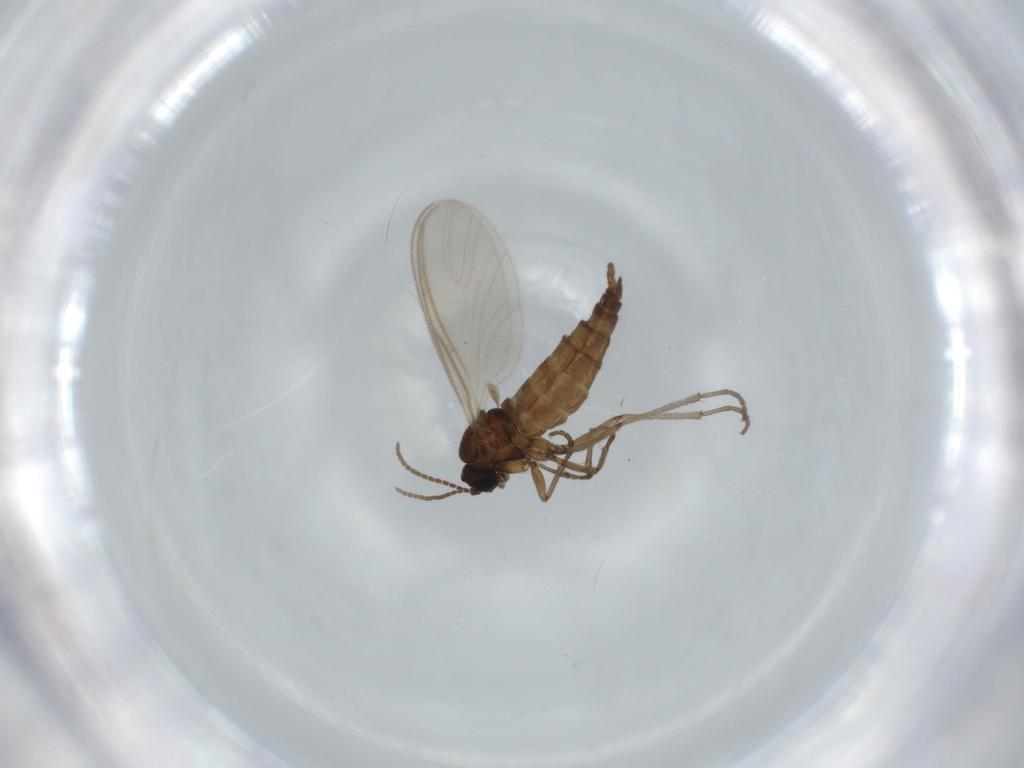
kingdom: Animalia
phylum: Arthropoda
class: Insecta
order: Diptera
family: Sciaridae
